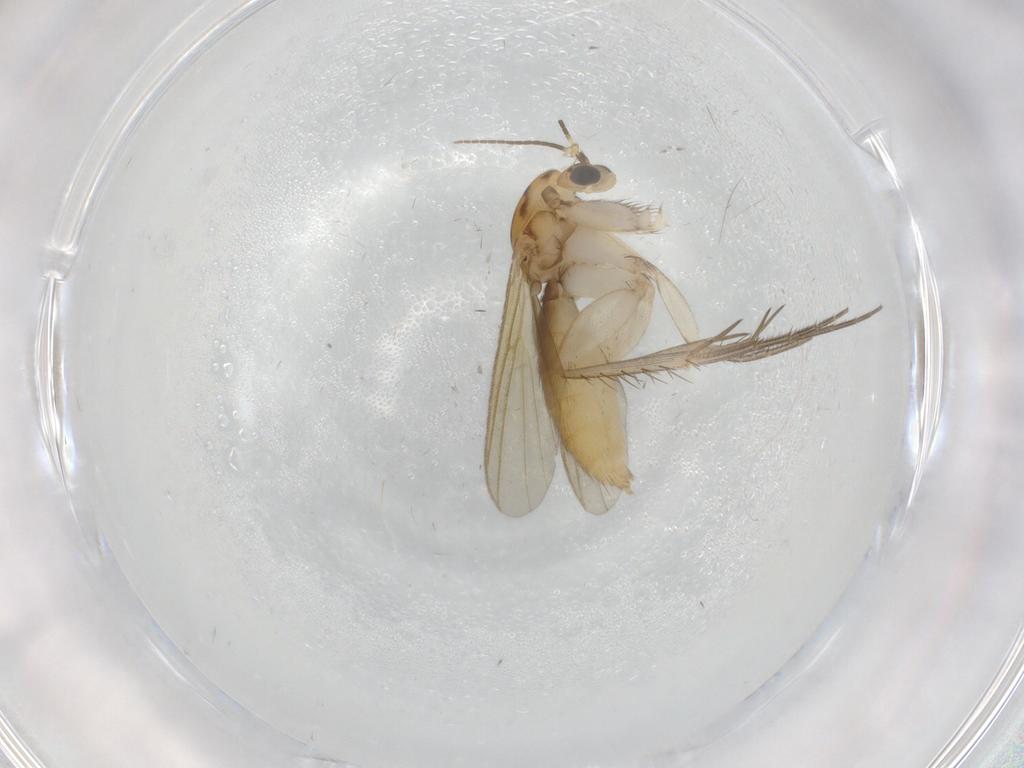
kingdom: Animalia
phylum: Arthropoda
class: Insecta
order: Diptera
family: Mycetophilidae
